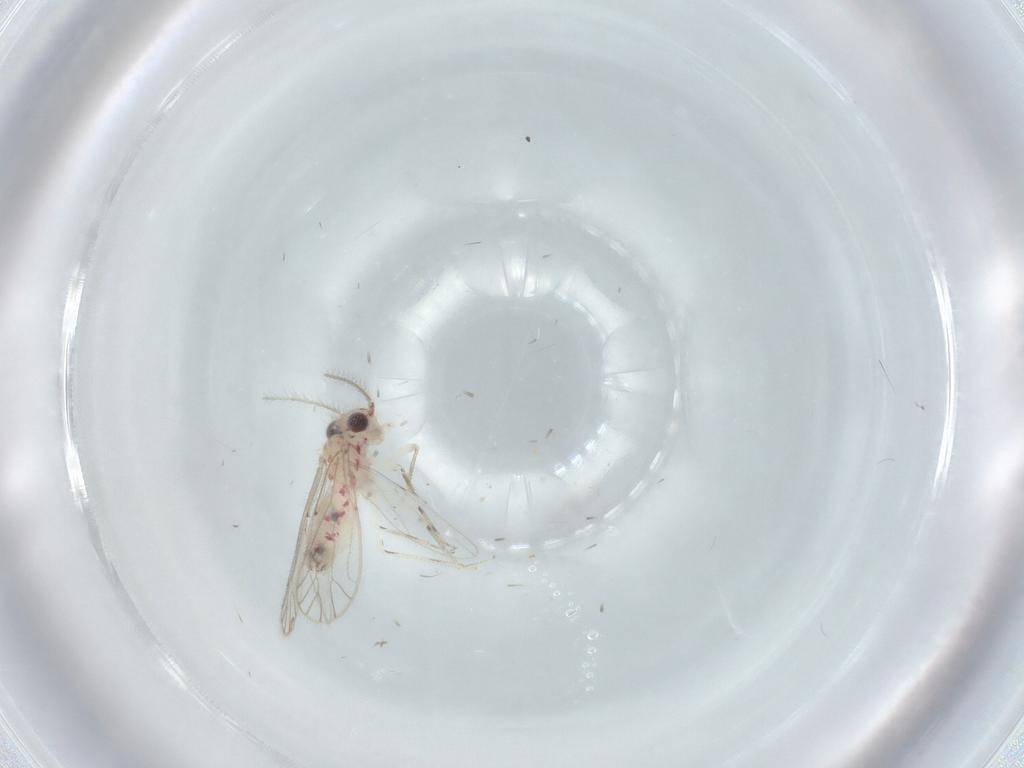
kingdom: Animalia
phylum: Arthropoda
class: Insecta
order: Psocodea
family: Caeciliusidae
